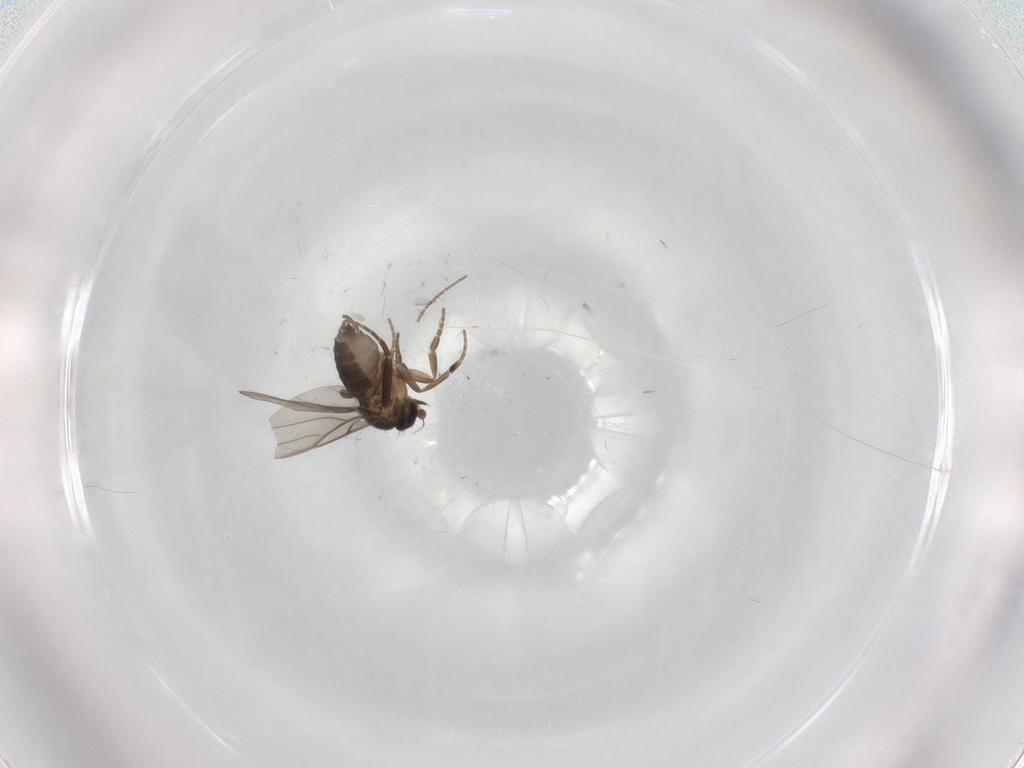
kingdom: Animalia
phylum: Arthropoda
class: Insecta
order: Diptera
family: Phoridae
